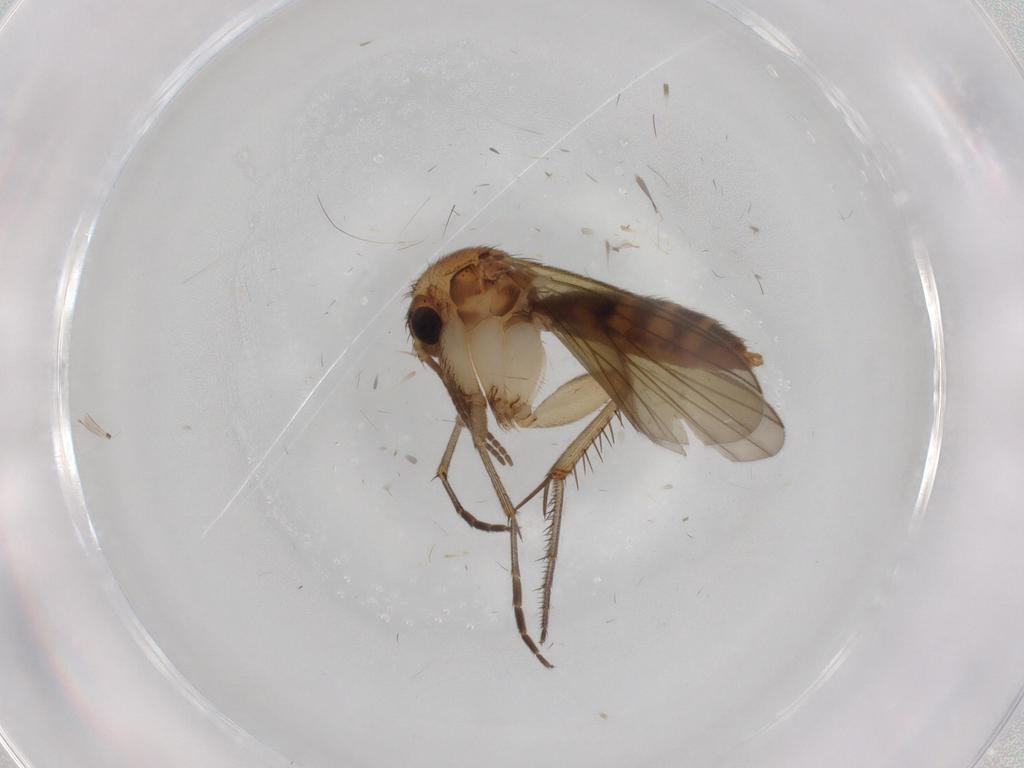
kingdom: Animalia
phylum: Arthropoda
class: Insecta
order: Diptera
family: Mycetophilidae
